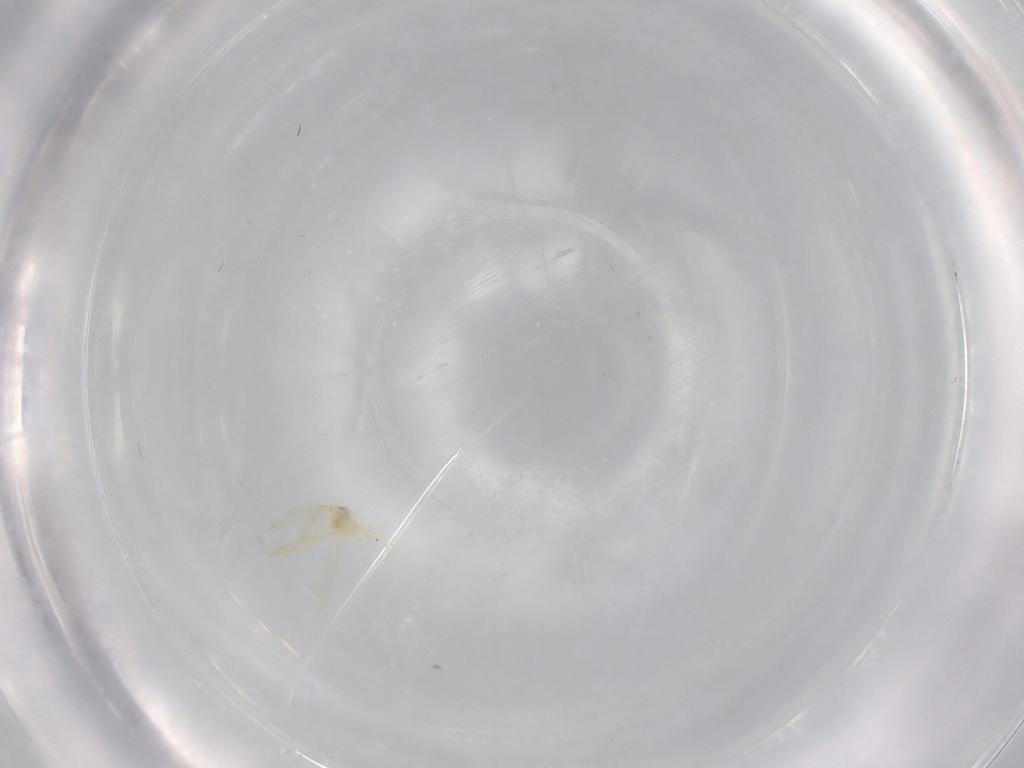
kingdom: Animalia
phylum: Arthropoda
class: Insecta
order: Hemiptera
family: Aleyrodidae
